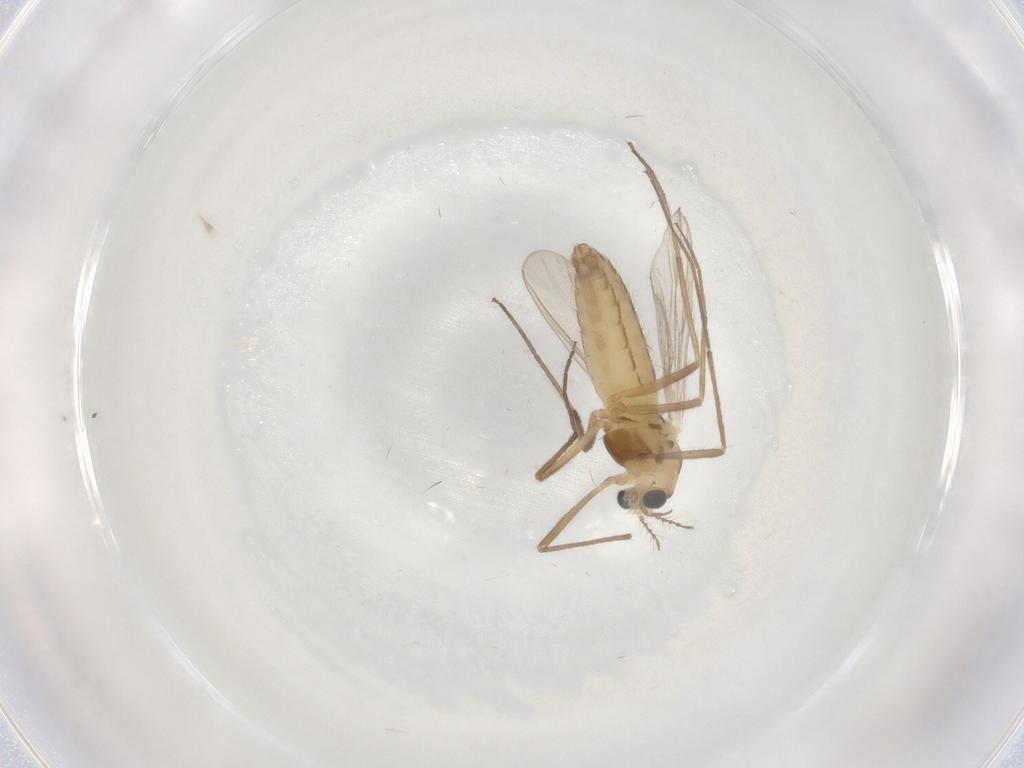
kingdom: Animalia
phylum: Arthropoda
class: Insecta
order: Diptera
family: Chironomidae
